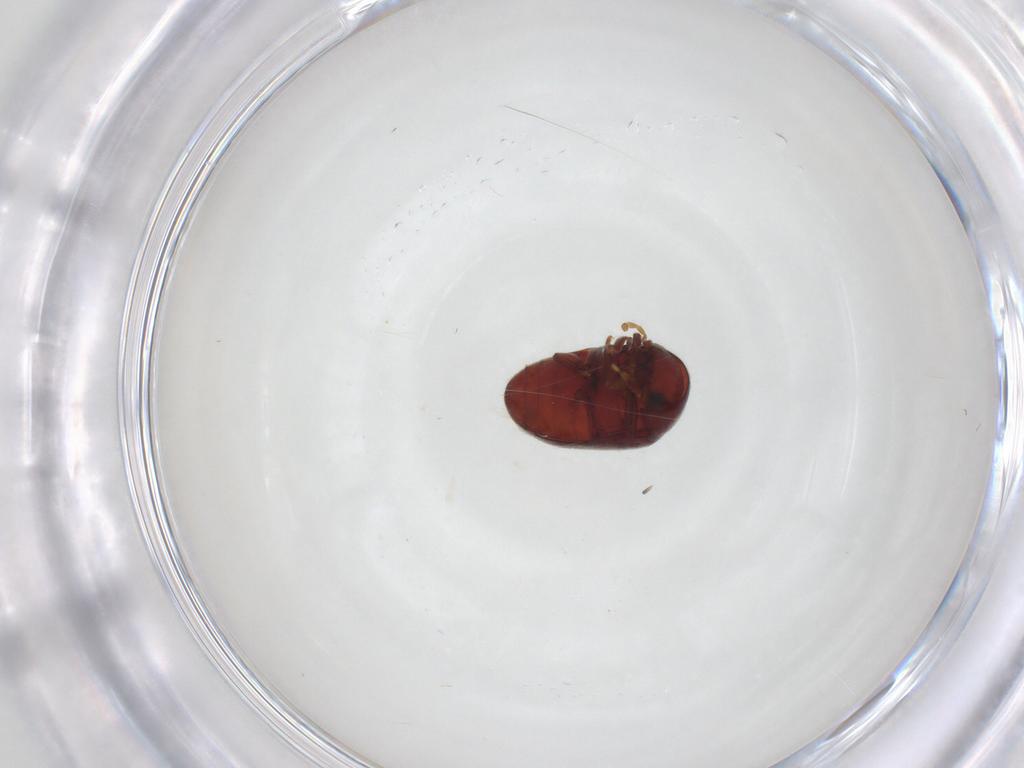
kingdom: Animalia
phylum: Arthropoda
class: Insecta
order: Coleoptera
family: Ptinidae
